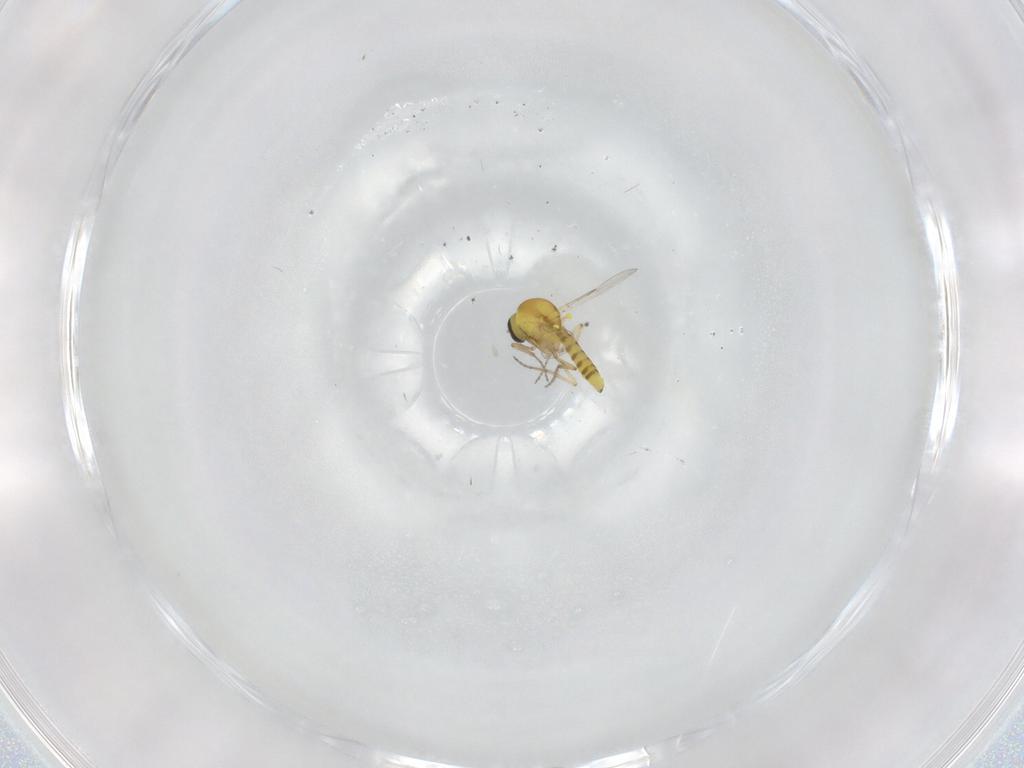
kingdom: Animalia
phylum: Arthropoda
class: Insecta
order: Diptera
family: Ceratopogonidae
